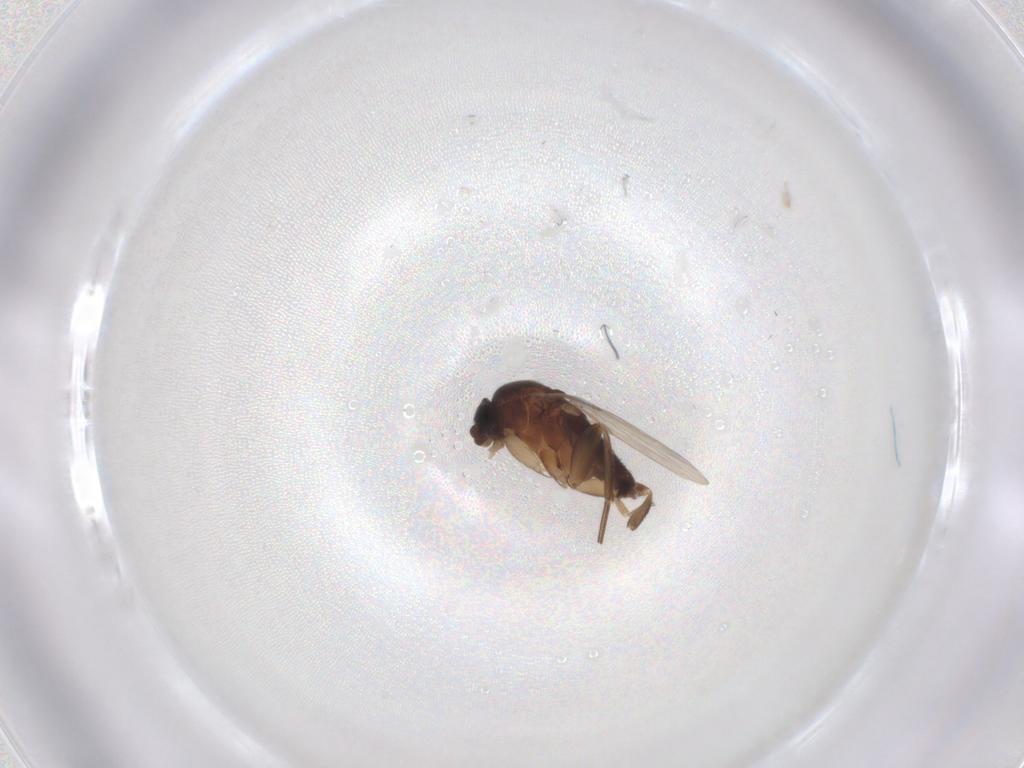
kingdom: Animalia
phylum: Arthropoda
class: Insecta
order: Diptera
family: Phoridae
